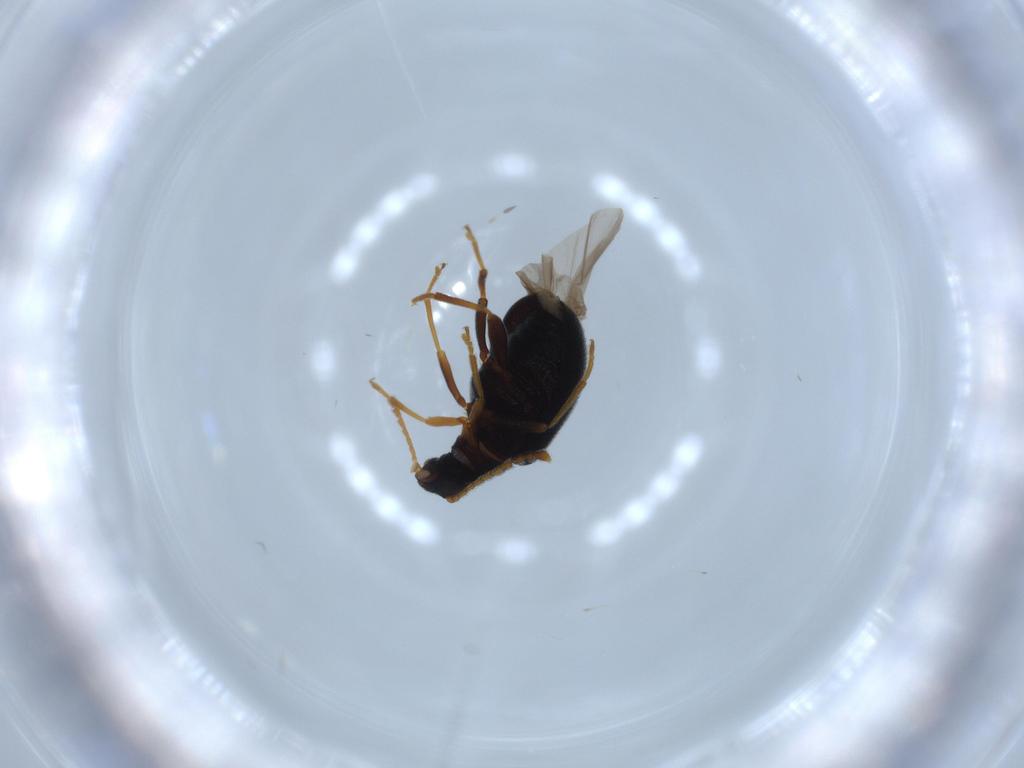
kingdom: Animalia
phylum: Arthropoda
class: Insecta
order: Coleoptera
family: Aderidae
